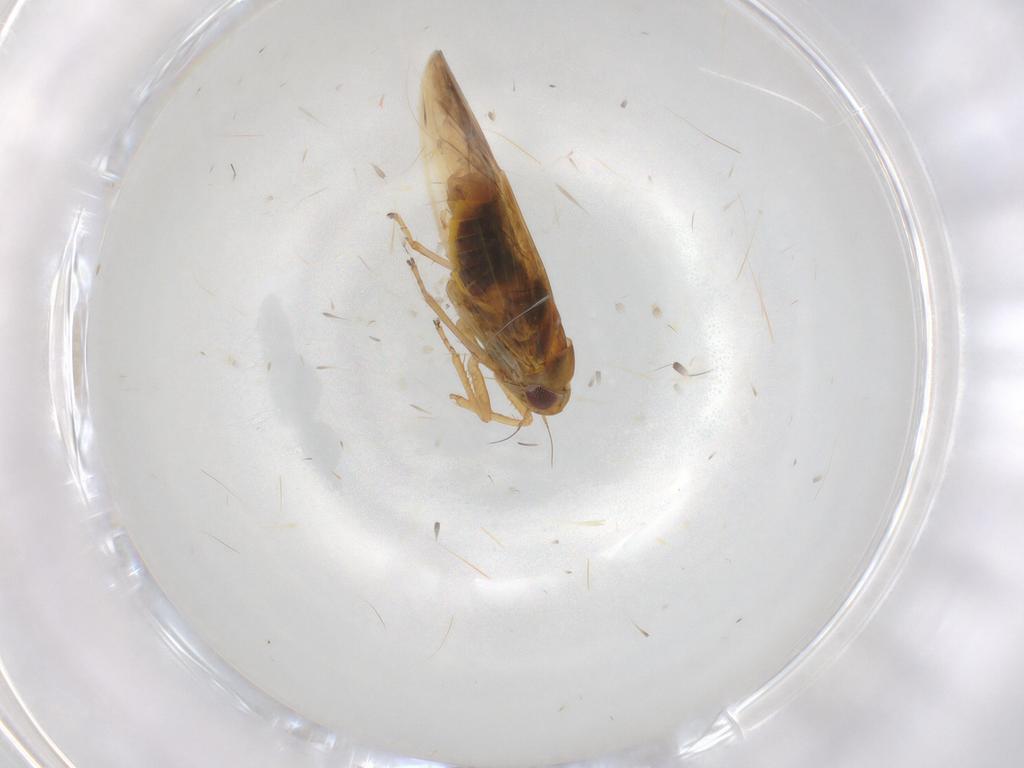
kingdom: Animalia
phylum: Arthropoda
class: Insecta
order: Hemiptera
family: Cicadellidae
